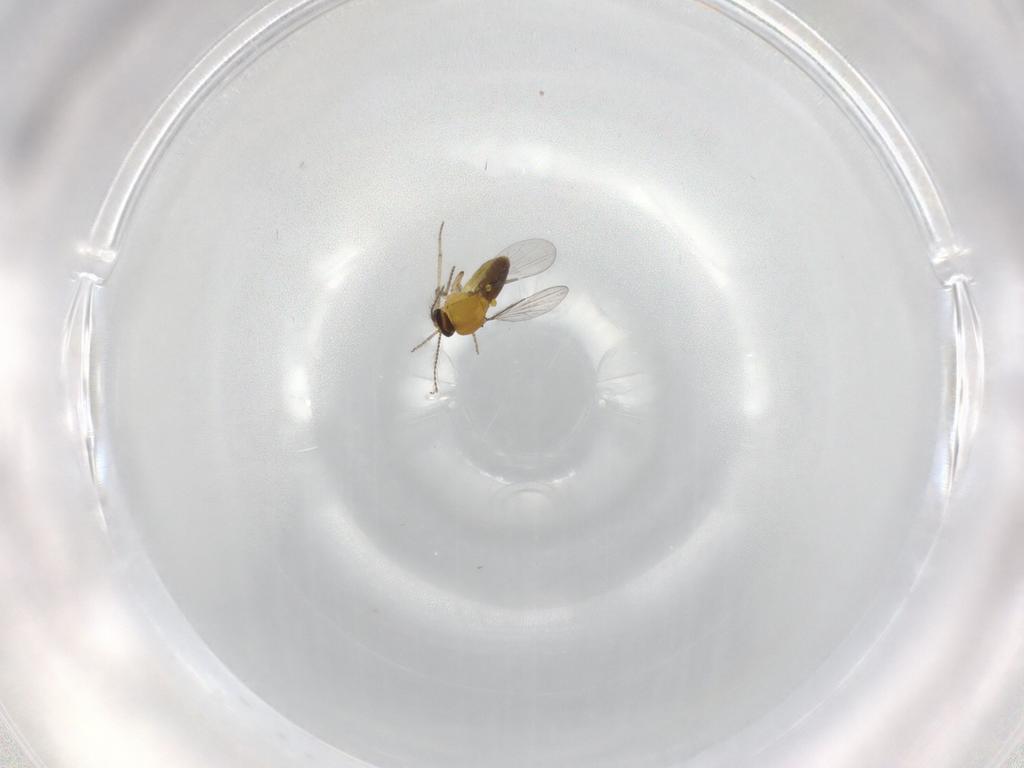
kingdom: Animalia
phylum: Arthropoda
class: Insecta
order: Diptera
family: Ceratopogonidae
